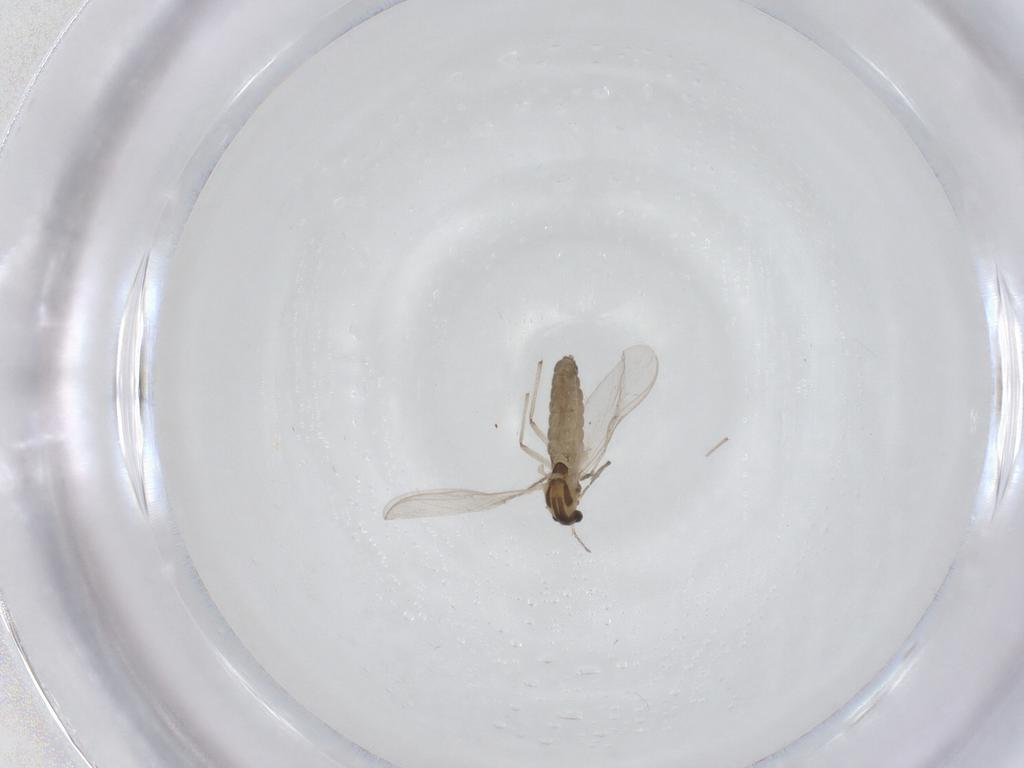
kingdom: Animalia
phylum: Arthropoda
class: Insecta
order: Diptera
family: Chironomidae
